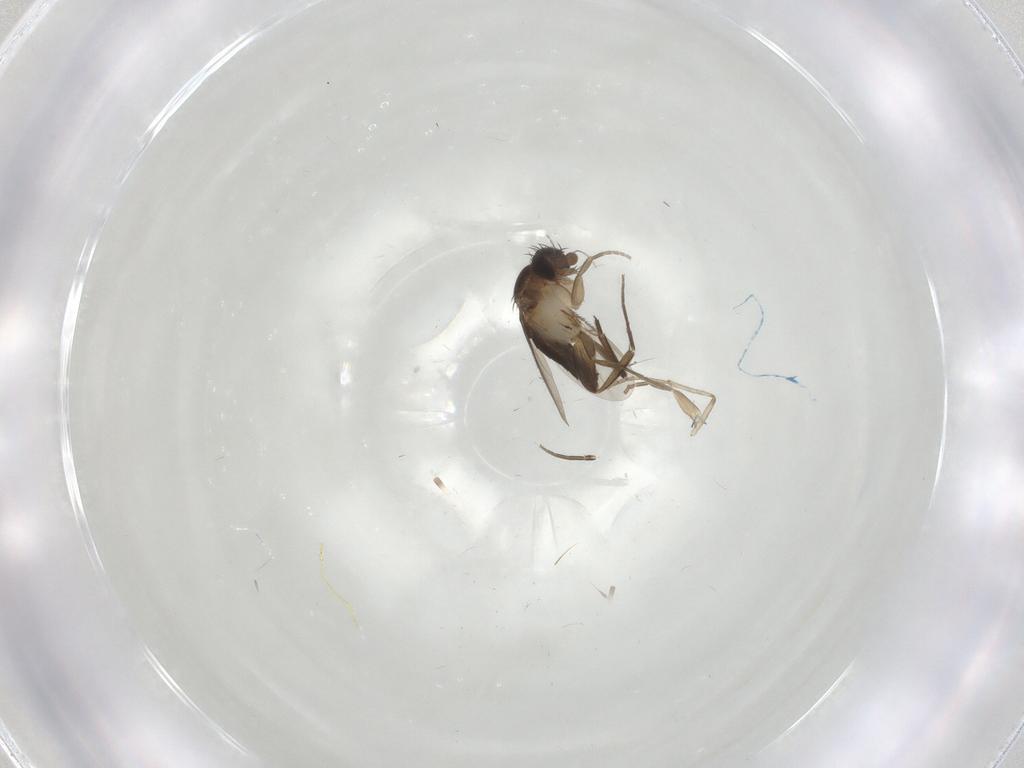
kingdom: Animalia
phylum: Arthropoda
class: Insecta
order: Diptera
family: Phoridae
